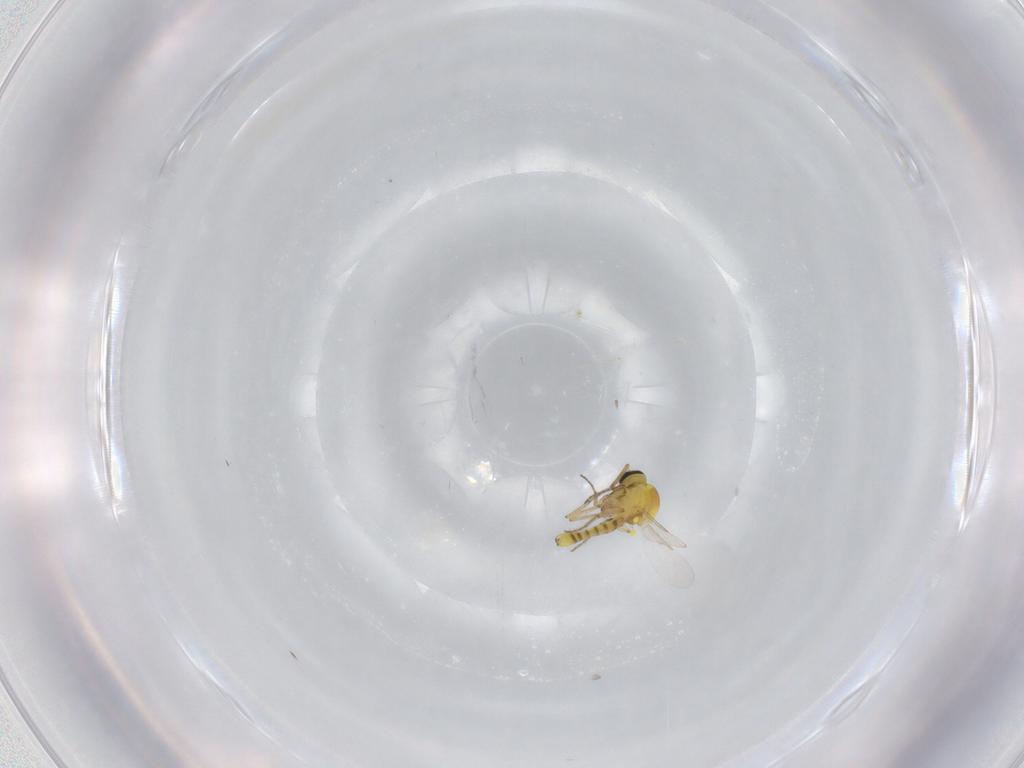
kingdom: Animalia
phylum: Arthropoda
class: Insecta
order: Diptera
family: Ceratopogonidae
